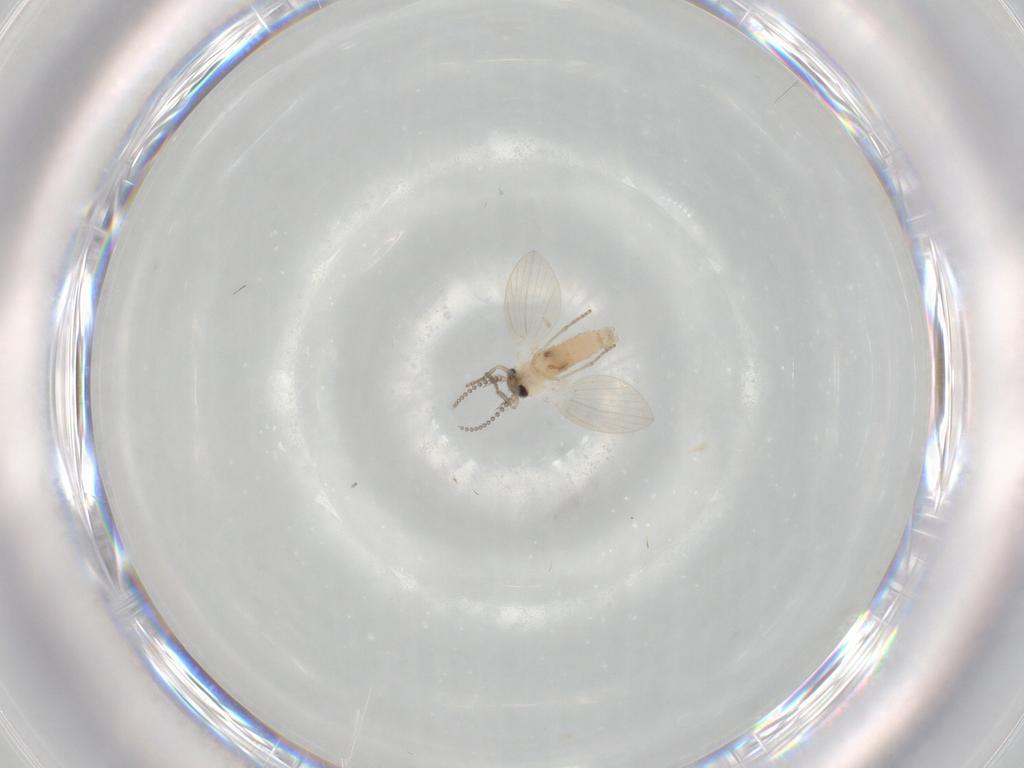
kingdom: Animalia
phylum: Arthropoda
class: Insecta
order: Diptera
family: Psychodidae
